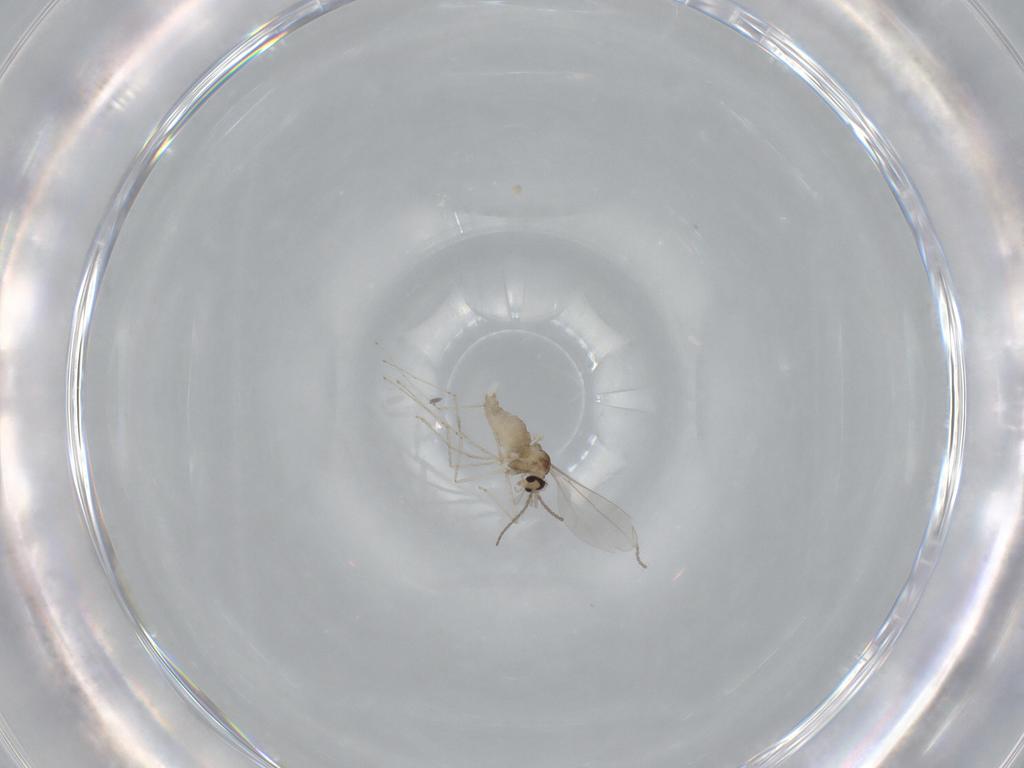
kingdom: Animalia
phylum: Arthropoda
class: Insecta
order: Diptera
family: Cecidomyiidae
